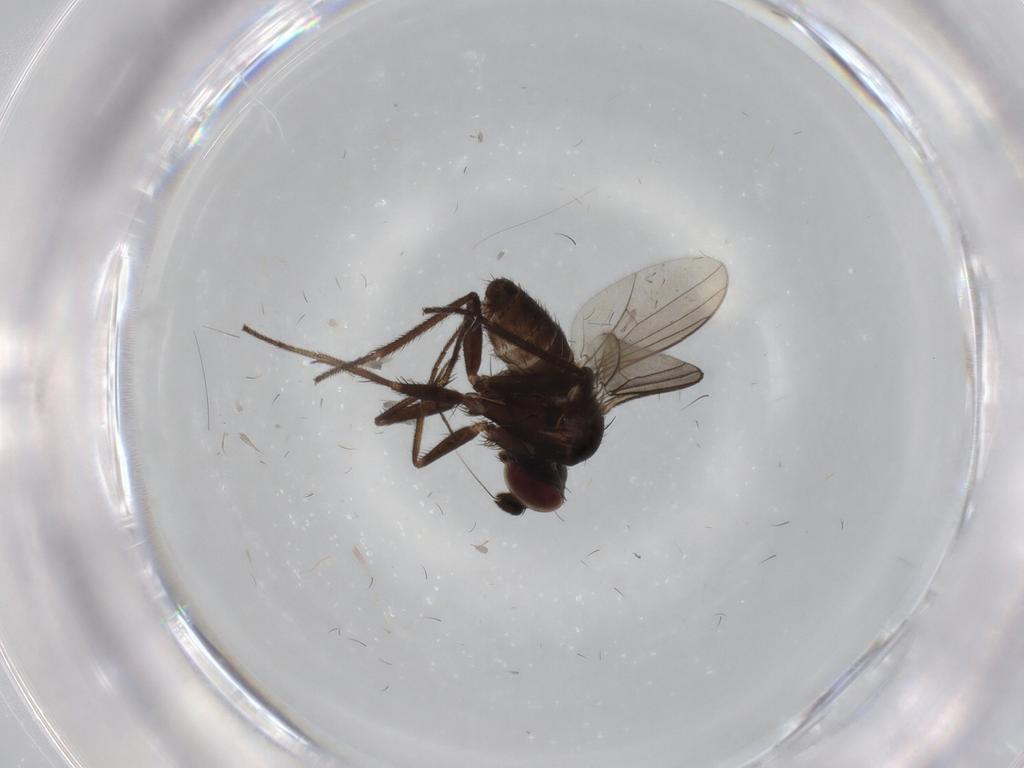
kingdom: Animalia
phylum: Arthropoda
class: Insecta
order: Diptera
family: Dolichopodidae
